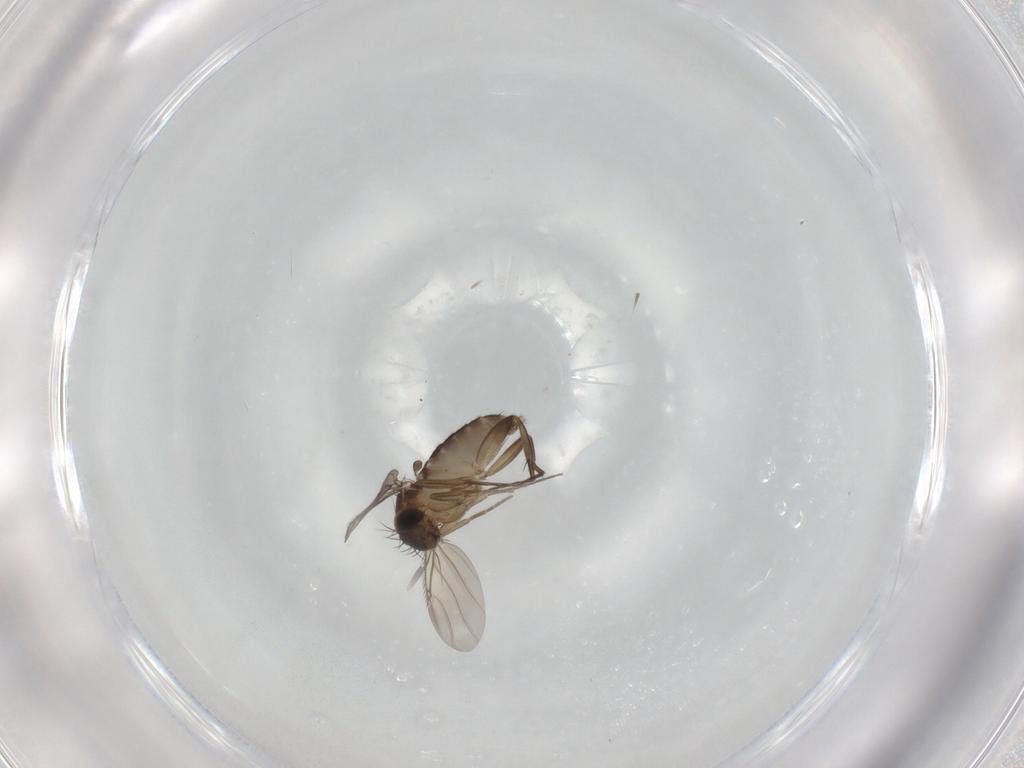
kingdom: Animalia
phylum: Arthropoda
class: Insecta
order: Diptera
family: Phoridae
